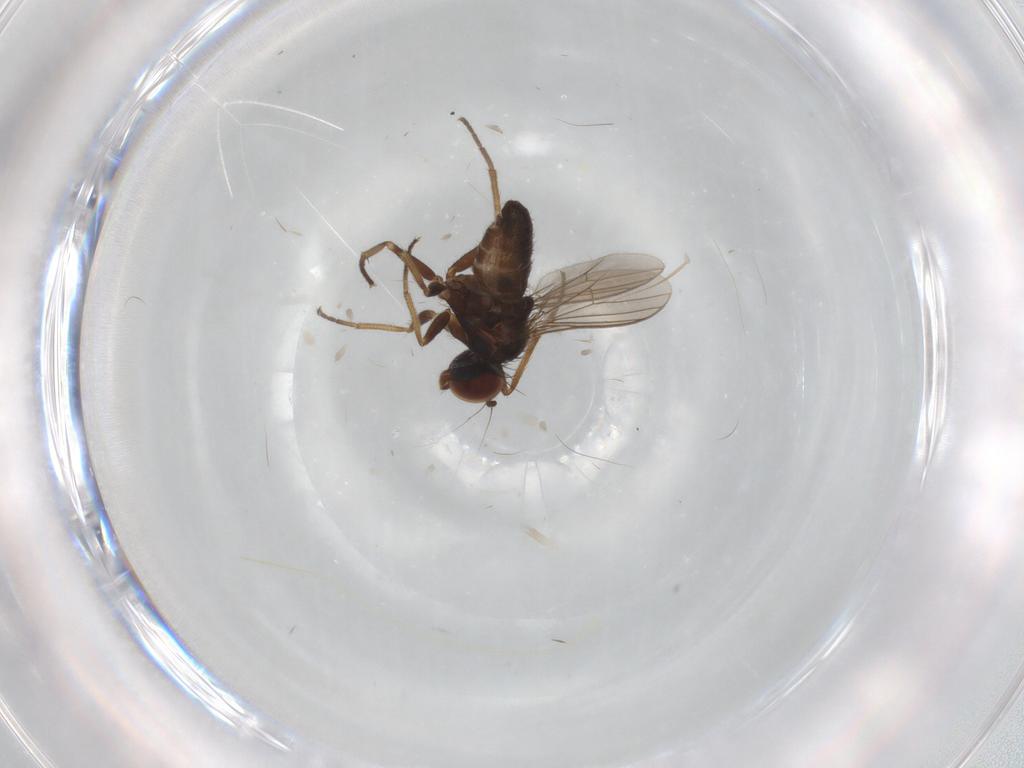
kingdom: Animalia
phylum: Arthropoda
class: Insecta
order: Diptera
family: Dolichopodidae
